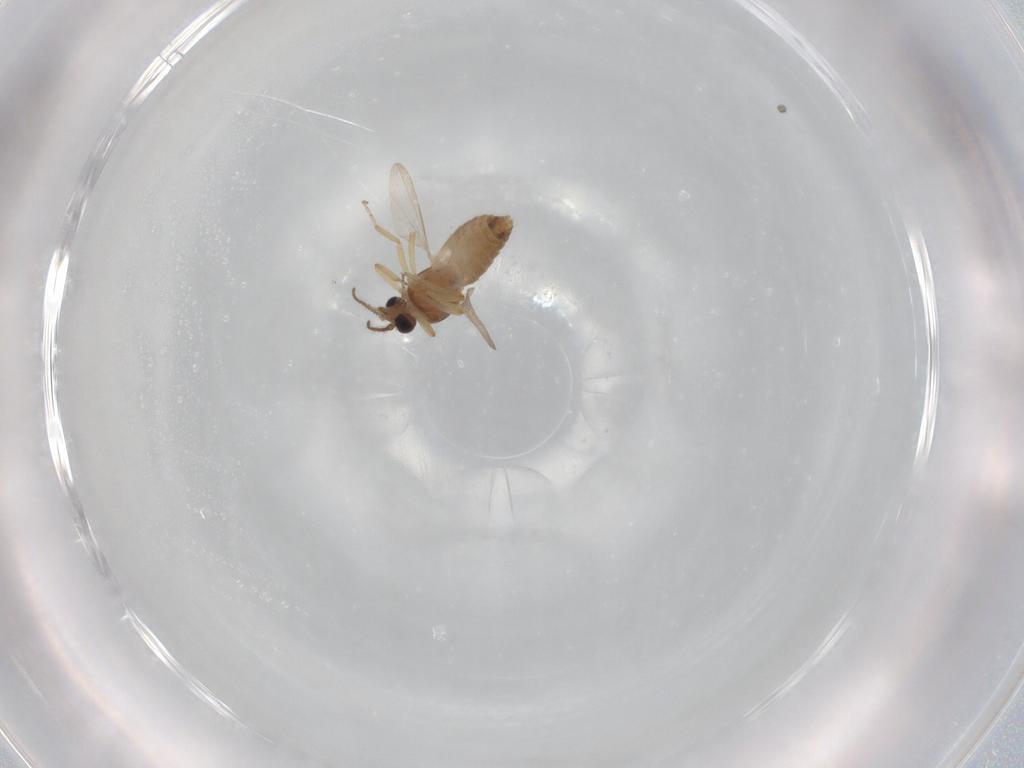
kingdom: Animalia
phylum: Arthropoda
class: Insecta
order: Diptera
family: Ceratopogonidae
